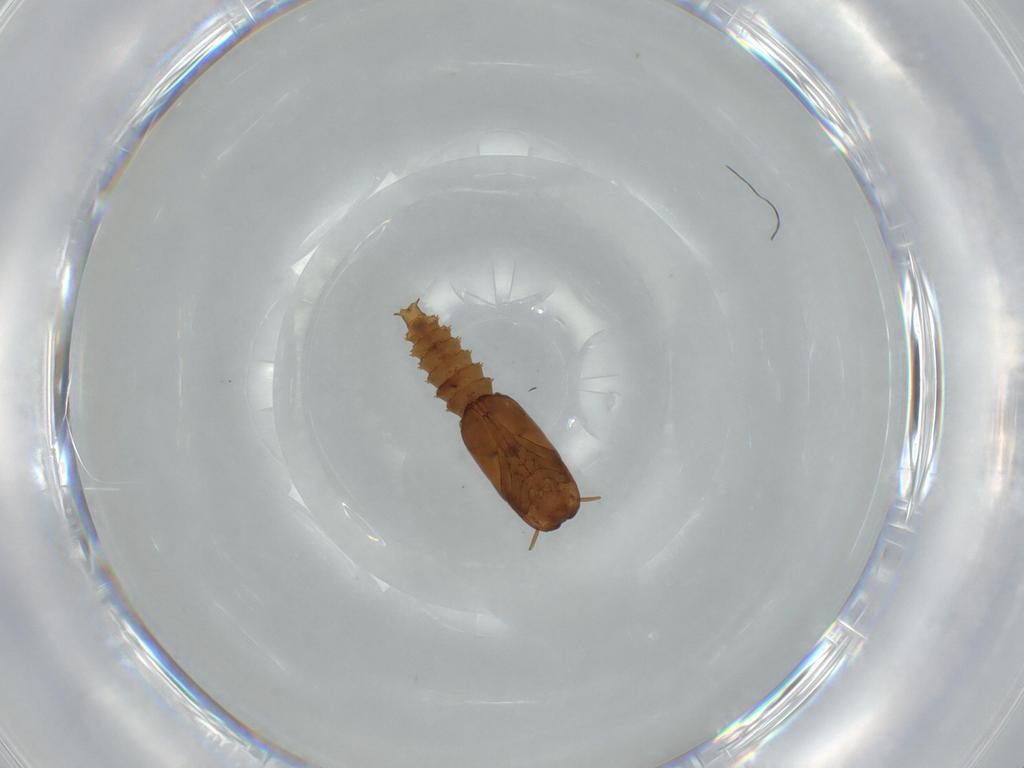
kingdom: Animalia
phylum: Arthropoda
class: Insecta
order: Diptera
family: Ceratopogonidae
